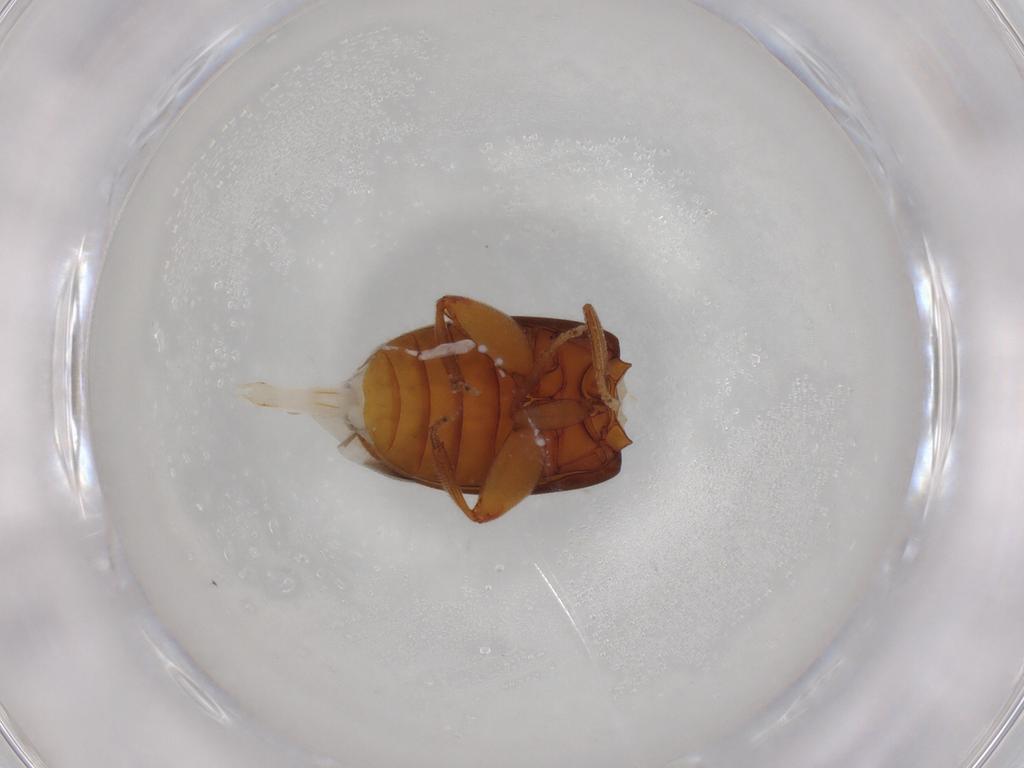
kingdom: Animalia
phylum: Arthropoda
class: Insecta
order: Coleoptera
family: Scirtidae
